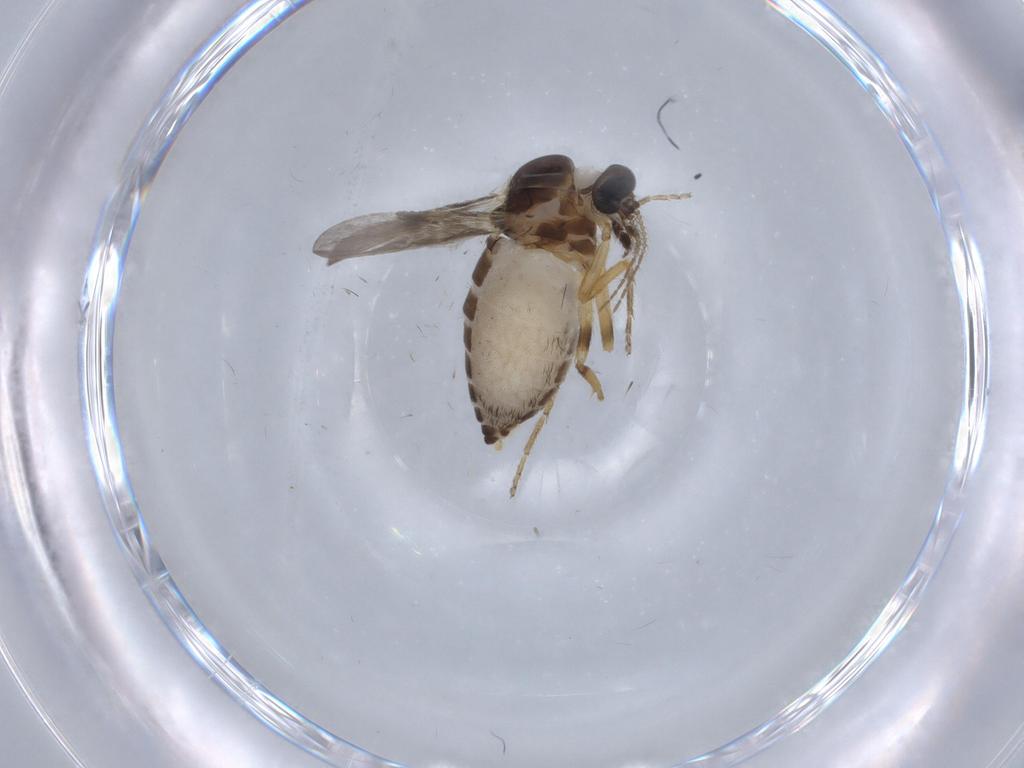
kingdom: Animalia
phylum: Arthropoda
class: Insecta
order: Diptera
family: Ceratopogonidae
